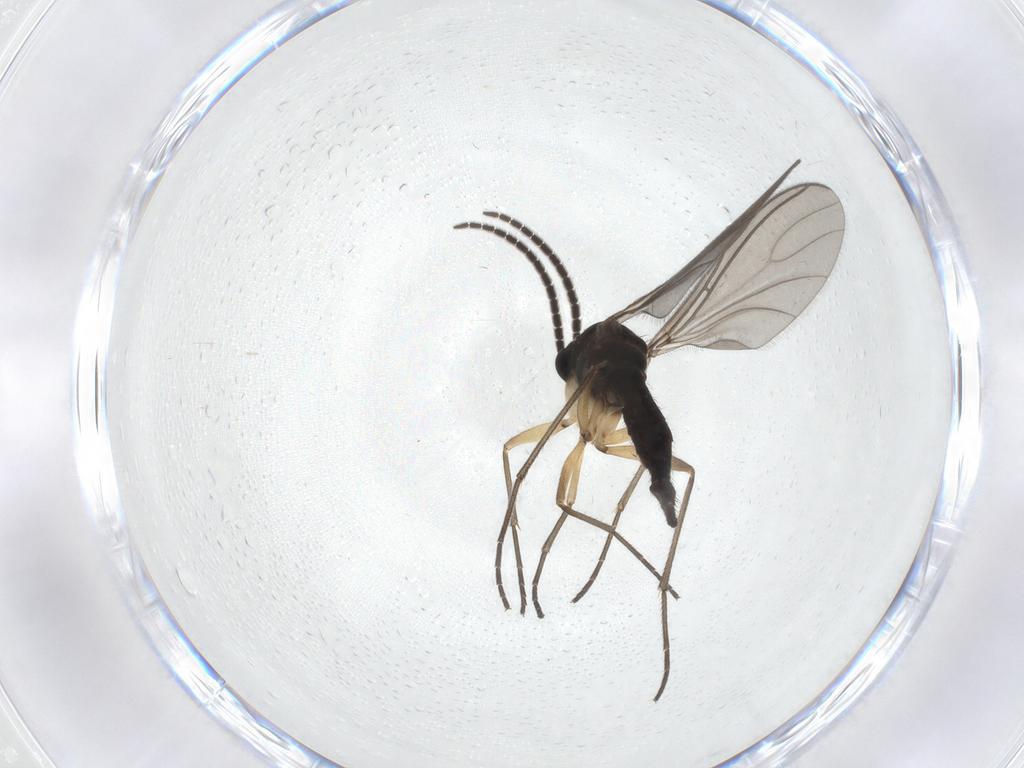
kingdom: Animalia
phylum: Arthropoda
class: Insecta
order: Diptera
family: Sciaridae
